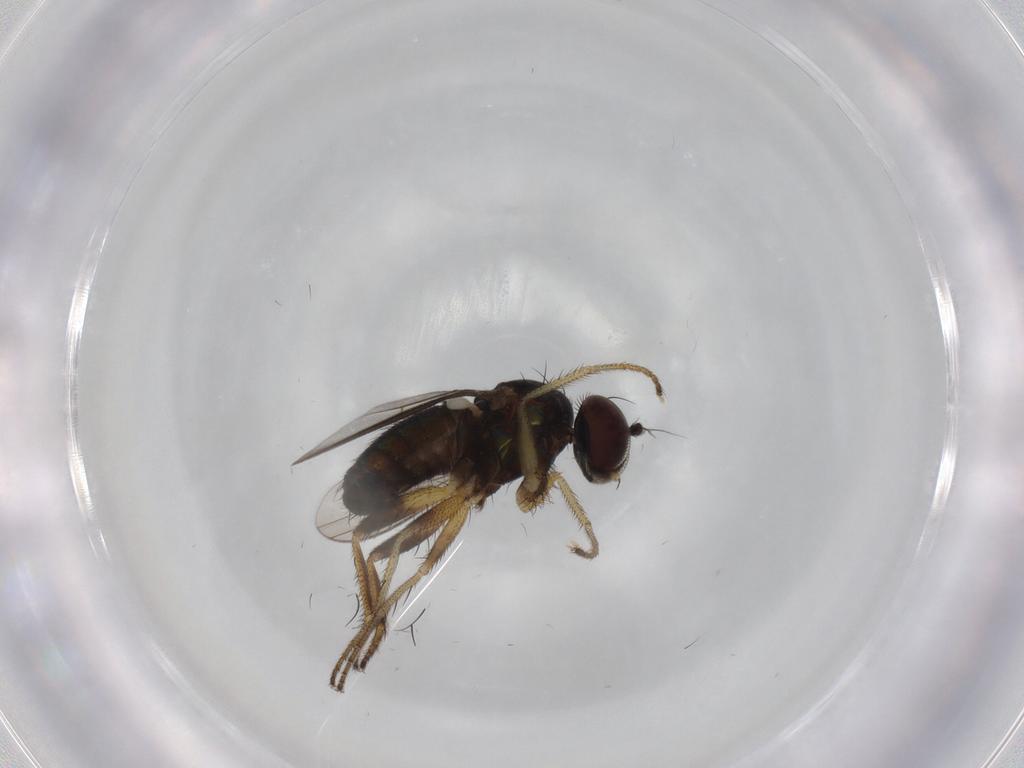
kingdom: Animalia
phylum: Arthropoda
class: Insecta
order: Diptera
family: Dolichopodidae
